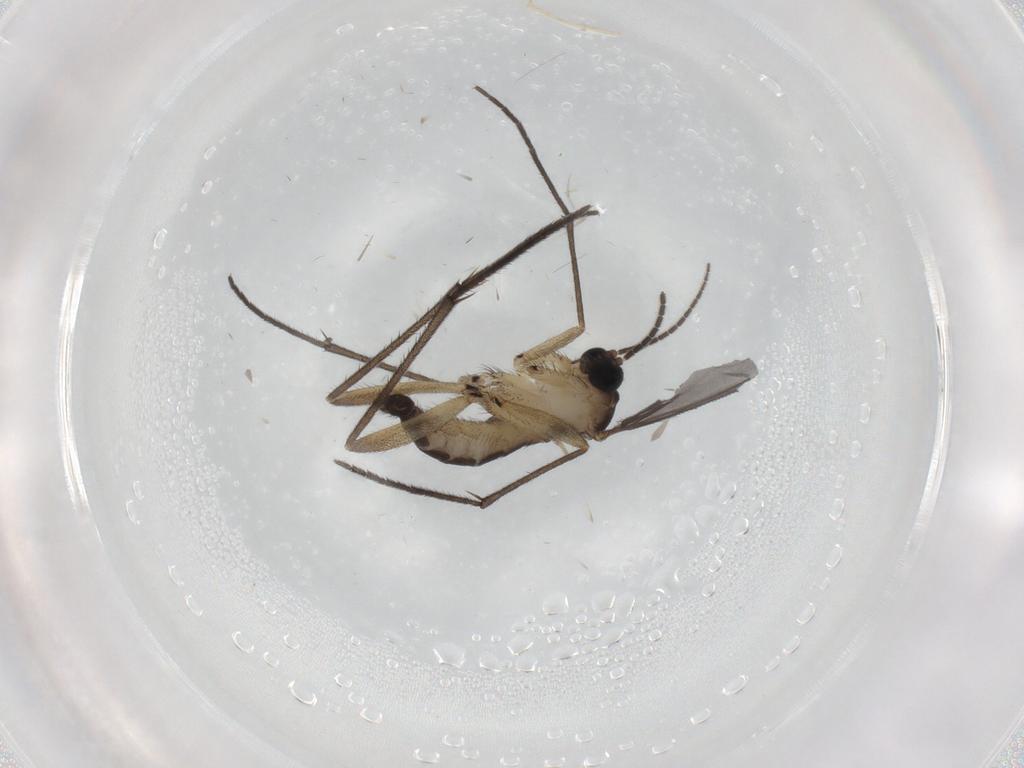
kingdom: Animalia
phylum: Arthropoda
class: Insecta
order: Diptera
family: Sciaridae
